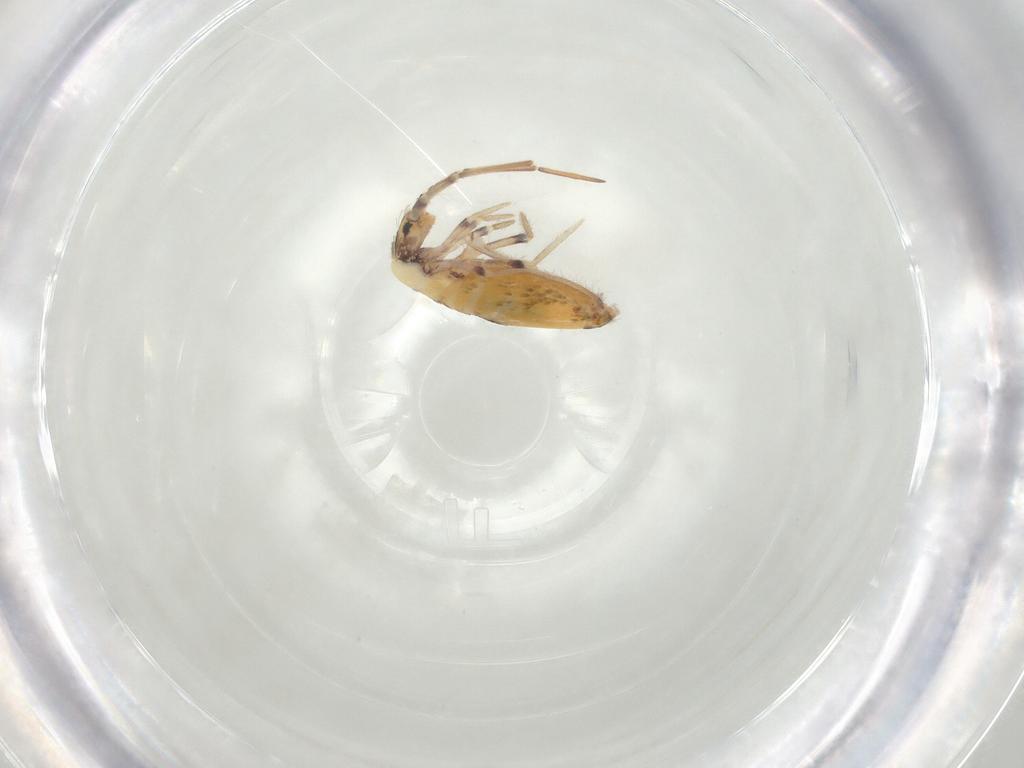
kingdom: Animalia
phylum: Arthropoda
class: Collembola
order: Entomobryomorpha
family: Entomobryidae
